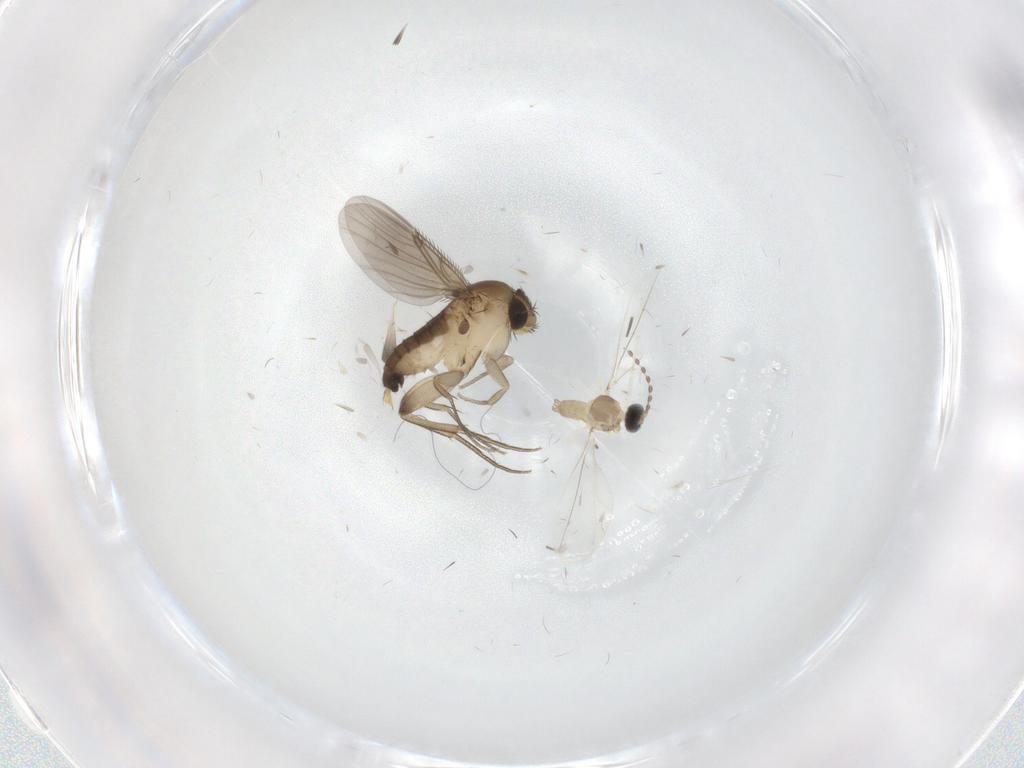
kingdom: Animalia
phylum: Arthropoda
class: Insecta
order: Diptera
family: Phoridae
